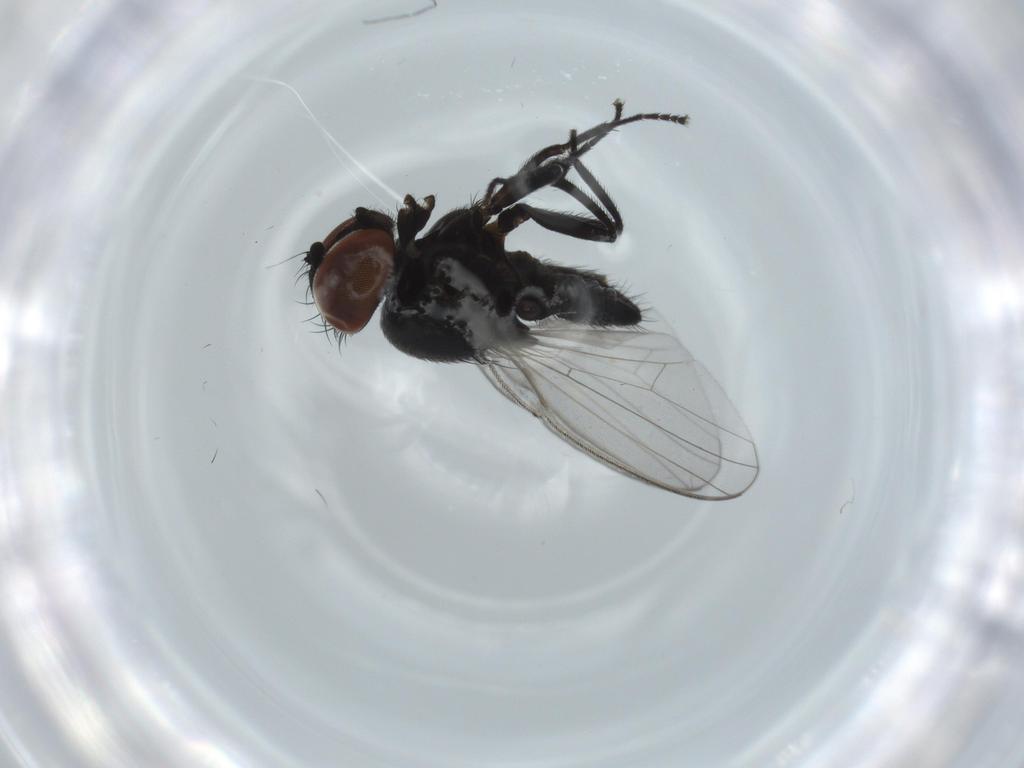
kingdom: Animalia
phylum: Arthropoda
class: Insecta
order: Diptera
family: Milichiidae
